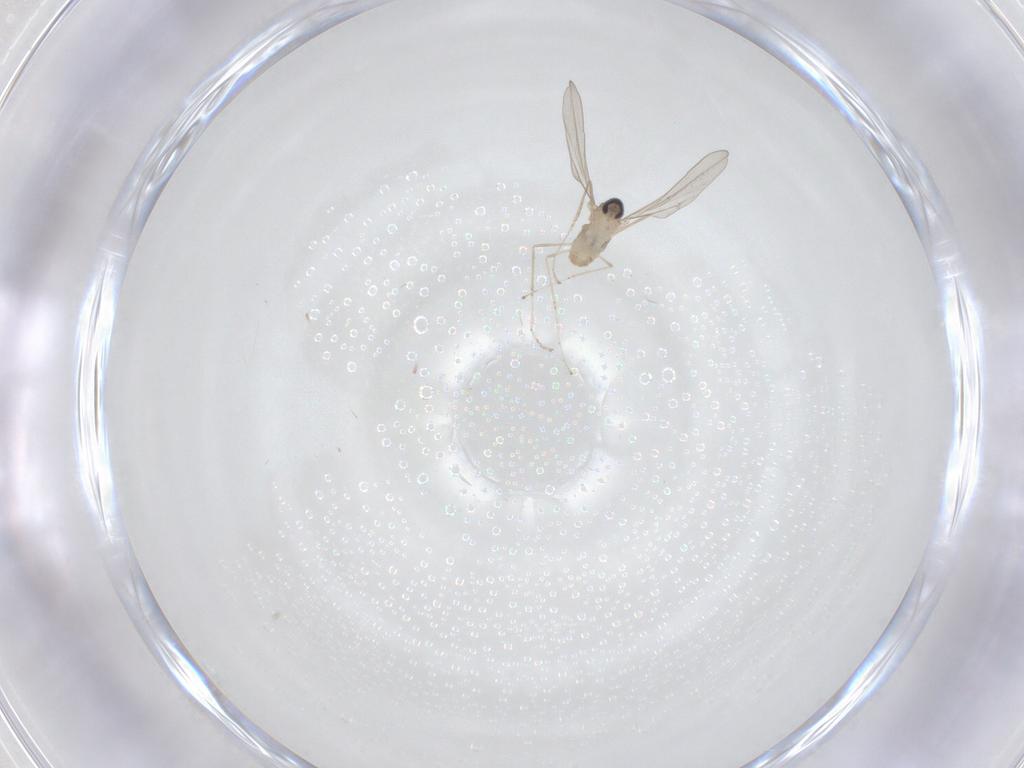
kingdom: Animalia
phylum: Arthropoda
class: Insecta
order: Diptera
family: Cecidomyiidae
